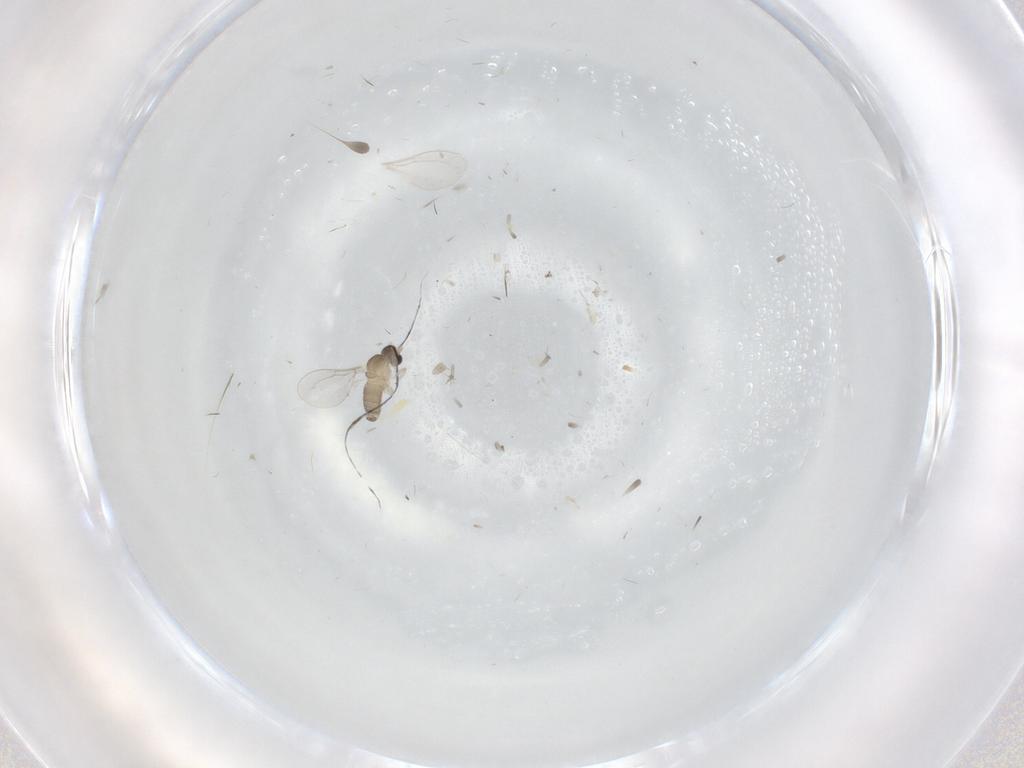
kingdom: Animalia
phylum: Arthropoda
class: Insecta
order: Diptera
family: Cecidomyiidae
